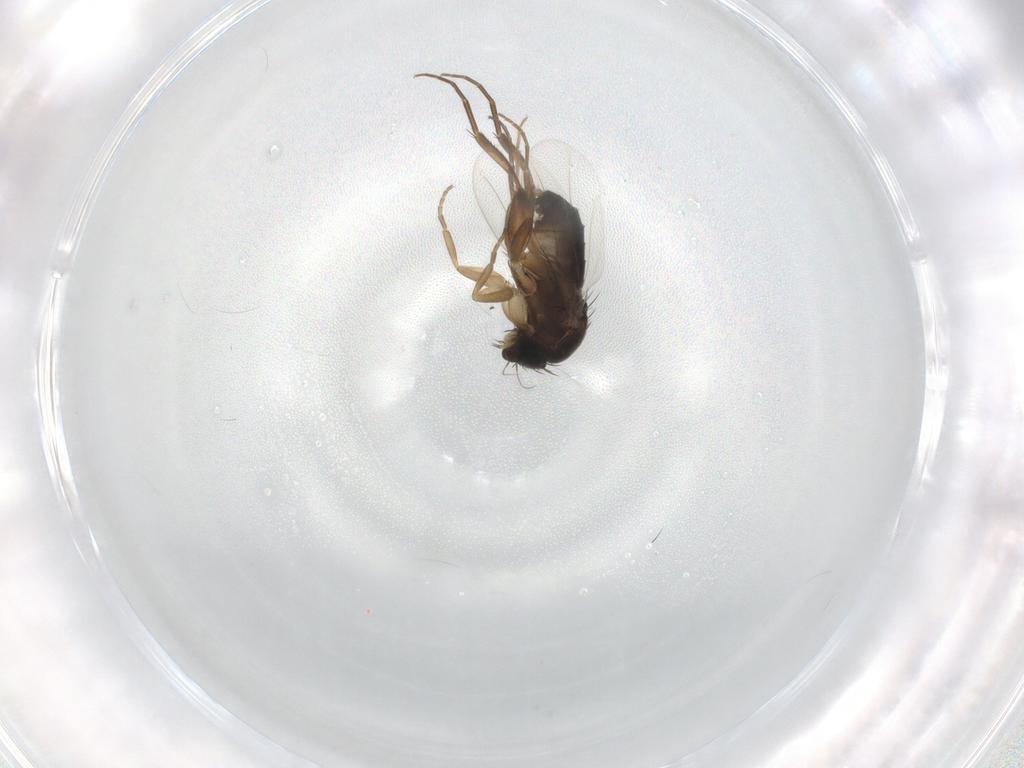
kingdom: Animalia
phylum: Arthropoda
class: Insecta
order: Diptera
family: Phoridae
